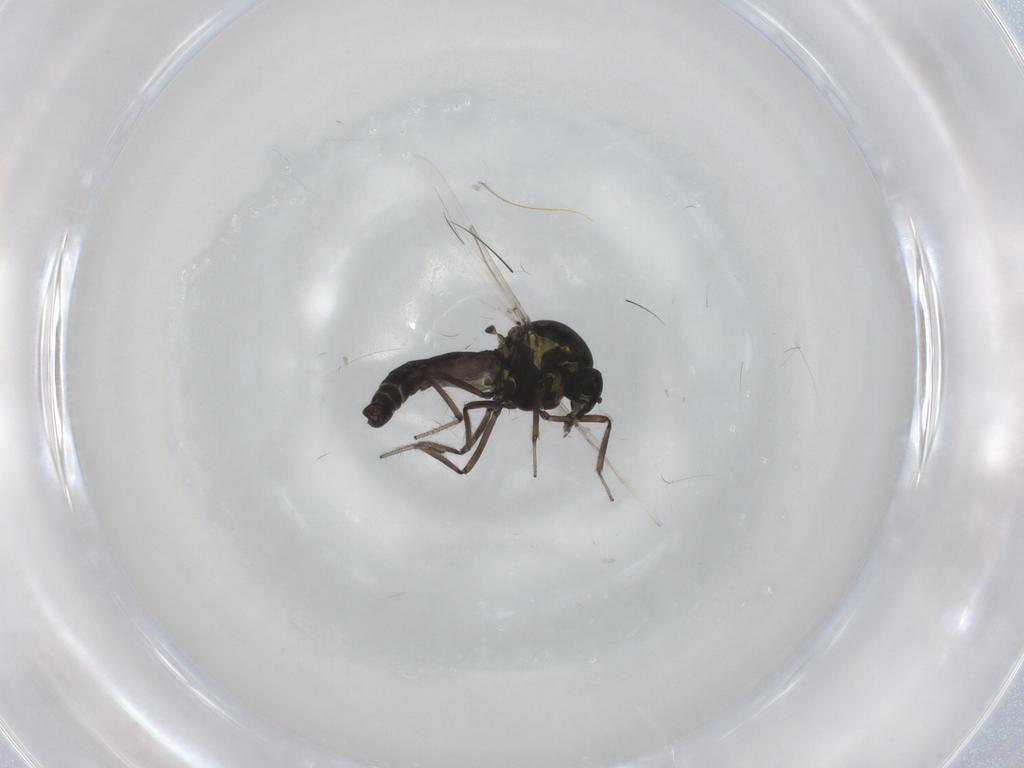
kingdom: Animalia
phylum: Arthropoda
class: Insecta
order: Diptera
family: Ceratopogonidae
